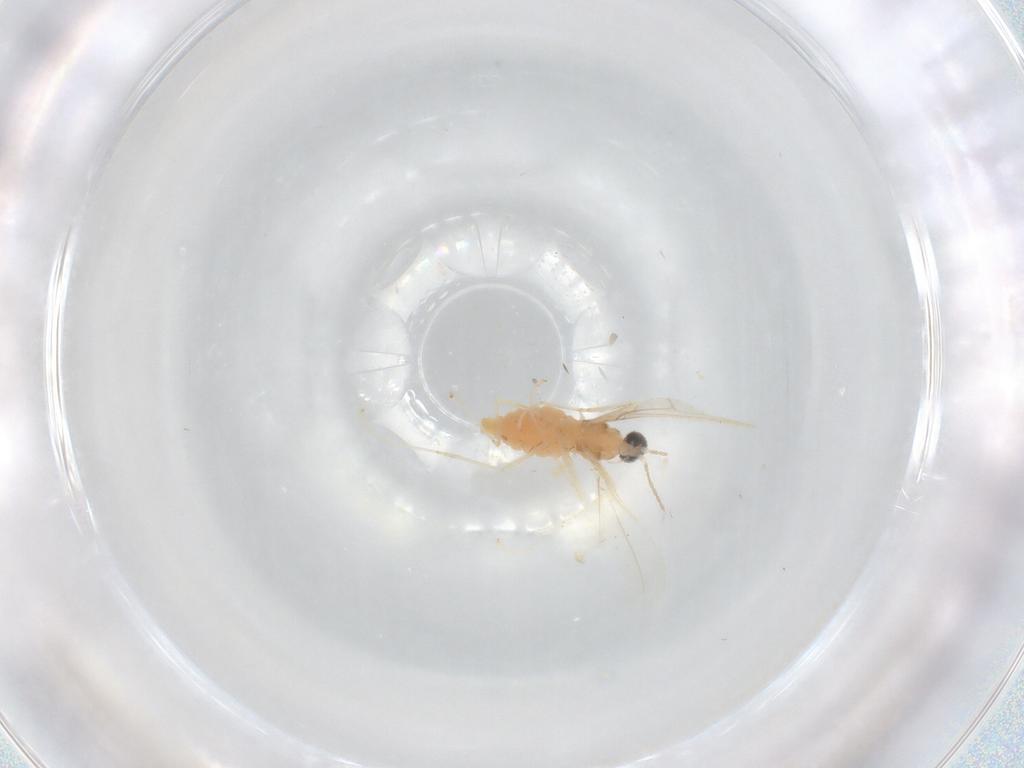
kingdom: Animalia
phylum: Arthropoda
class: Insecta
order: Diptera
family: Cecidomyiidae
